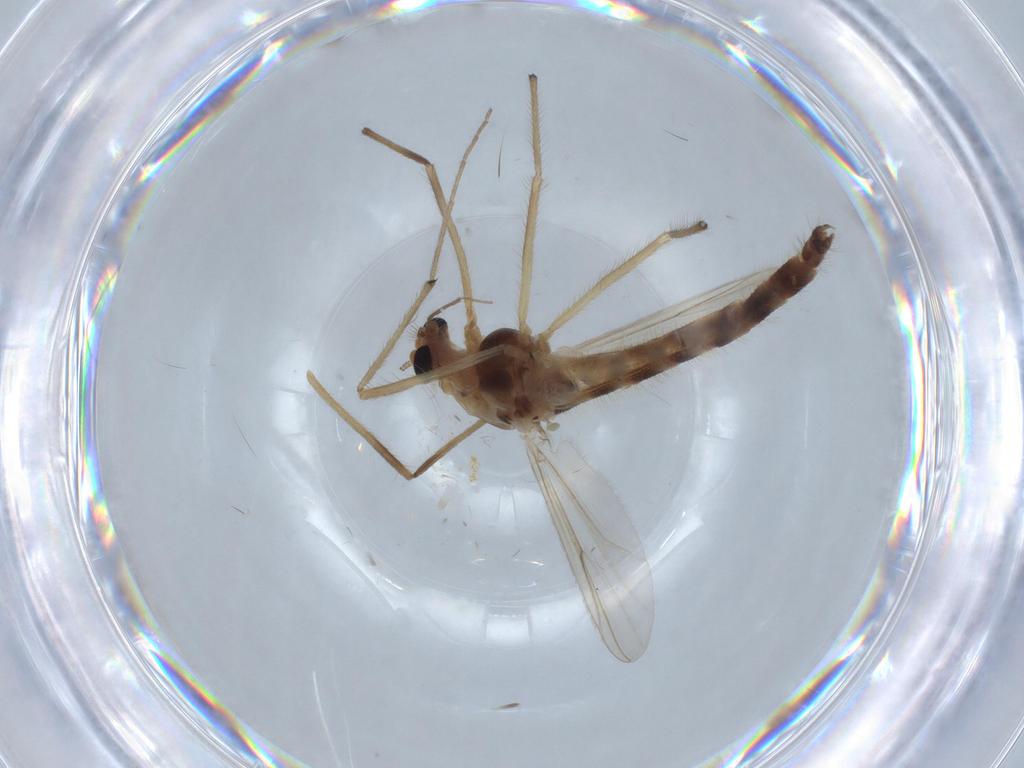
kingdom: Animalia
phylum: Arthropoda
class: Insecta
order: Diptera
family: Chironomidae
